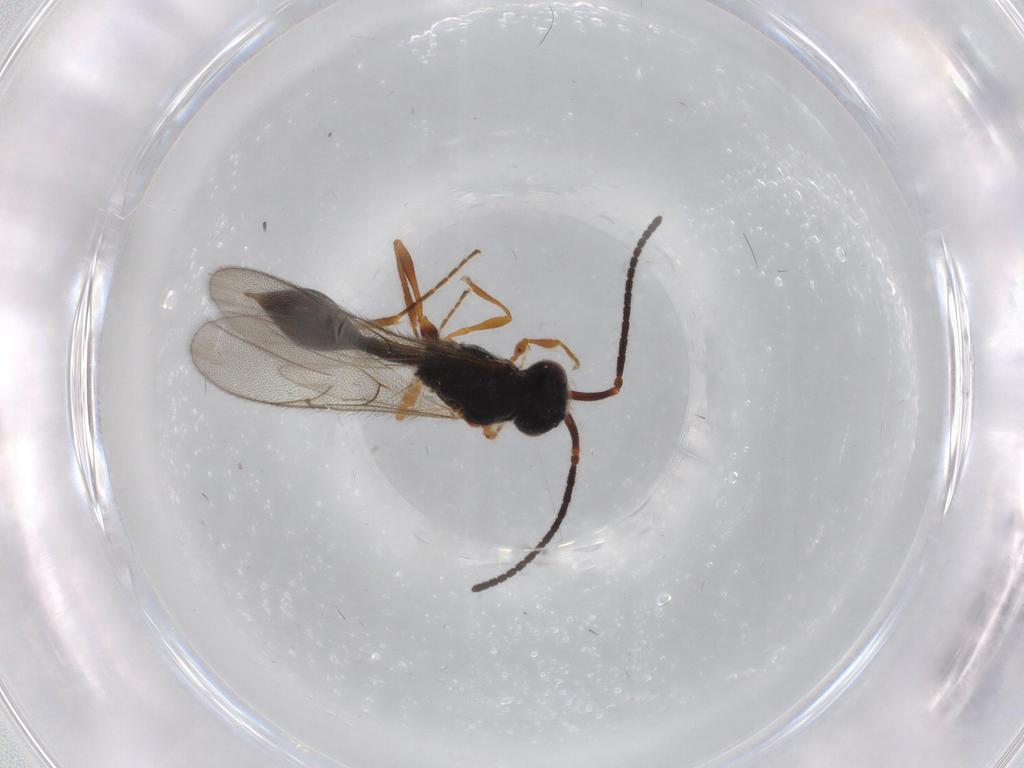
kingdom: Animalia
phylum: Arthropoda
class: Insecta
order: Hymenoptera
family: Diapriidae
